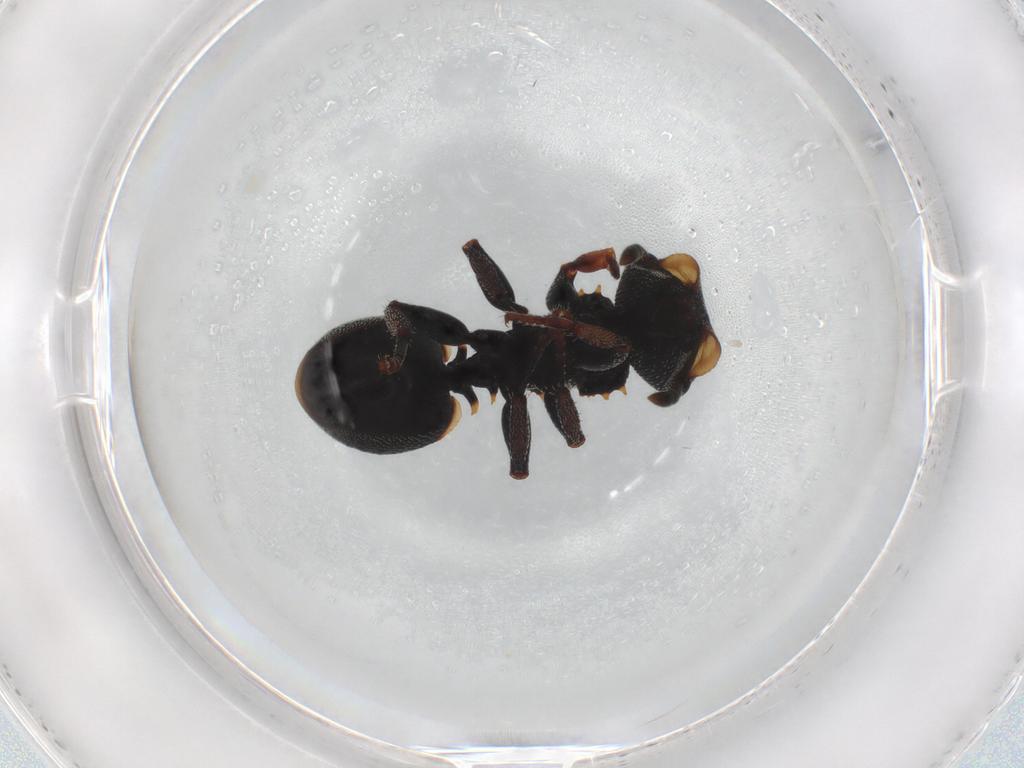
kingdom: Animalia
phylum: Arthropoda
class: Insecta
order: Hymenoptera
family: Formicidae
